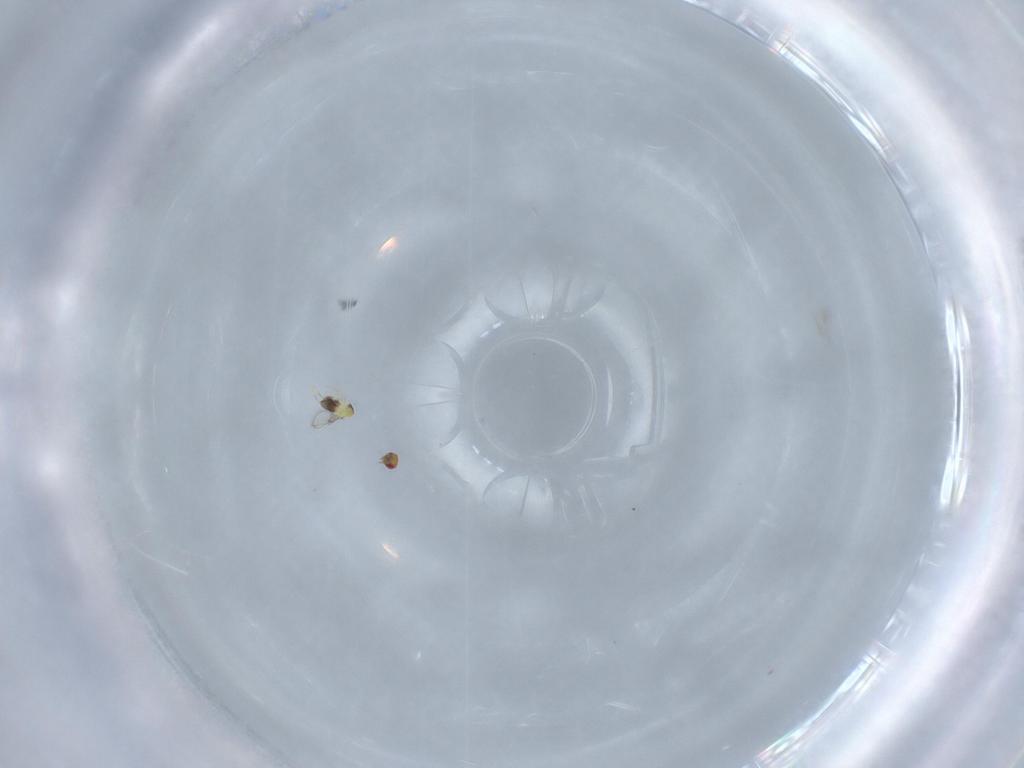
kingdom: Animalia
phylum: Arthropoda
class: Insecta
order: Hymenoptera
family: Trichogrammatidae
